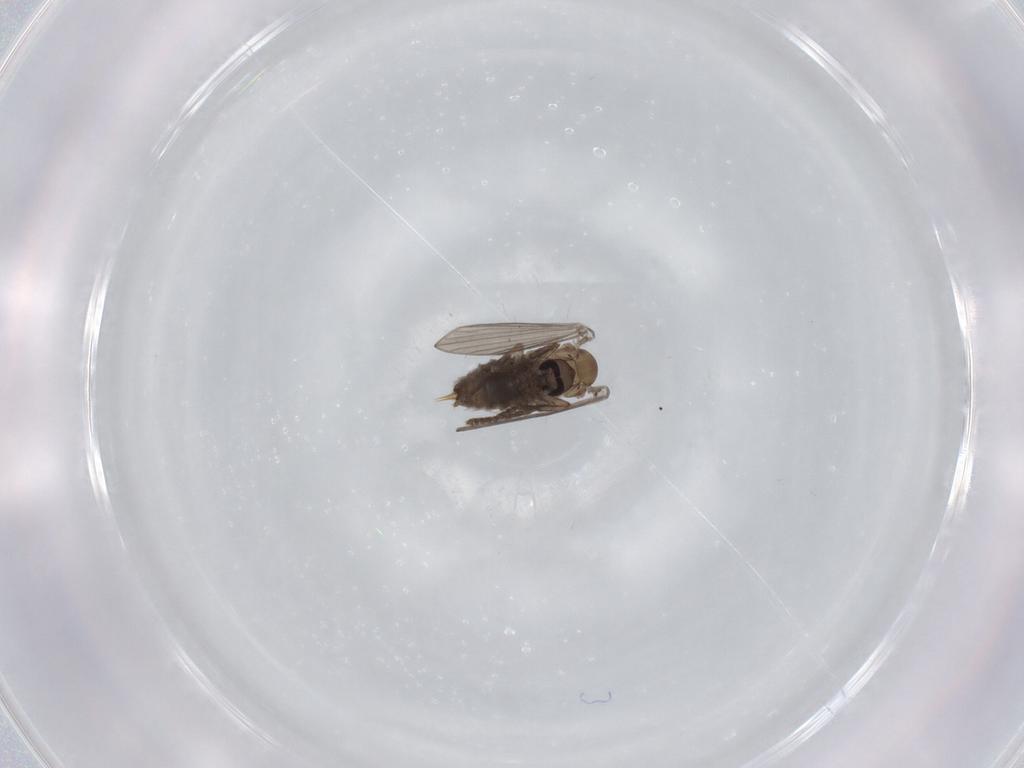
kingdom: Animalia
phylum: Arthropoda
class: Insecta
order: Diptera
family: Psychodidae
